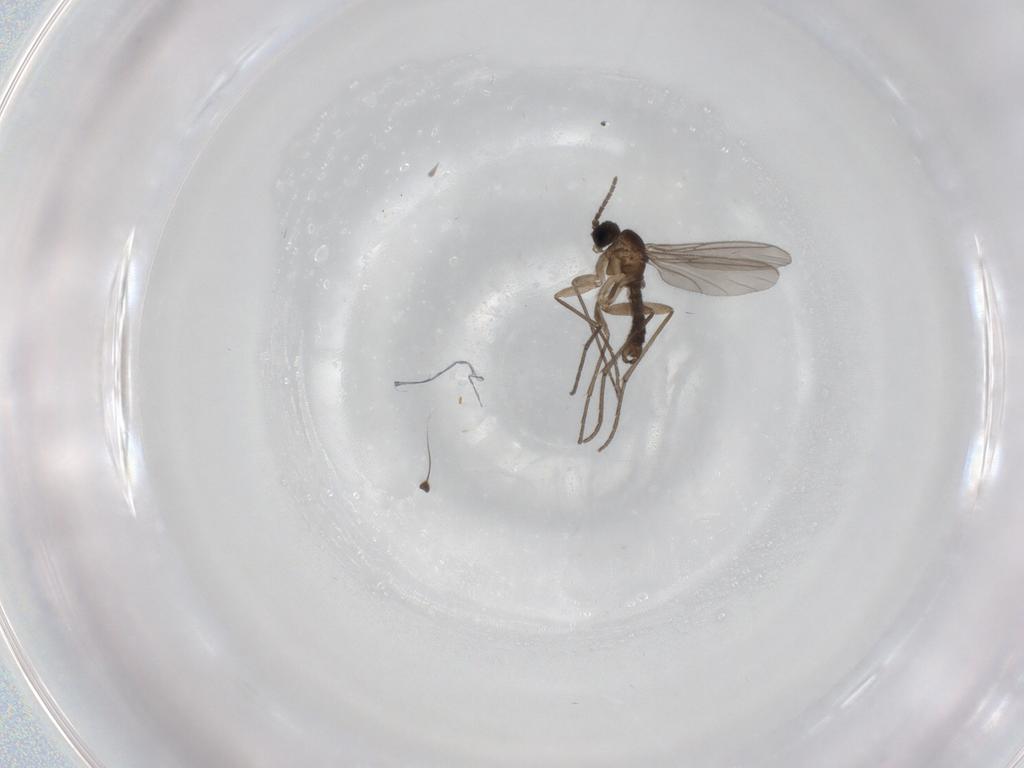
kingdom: Animalia
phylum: Arthropoda
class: Insecta
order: Diptera
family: Sciaridae
